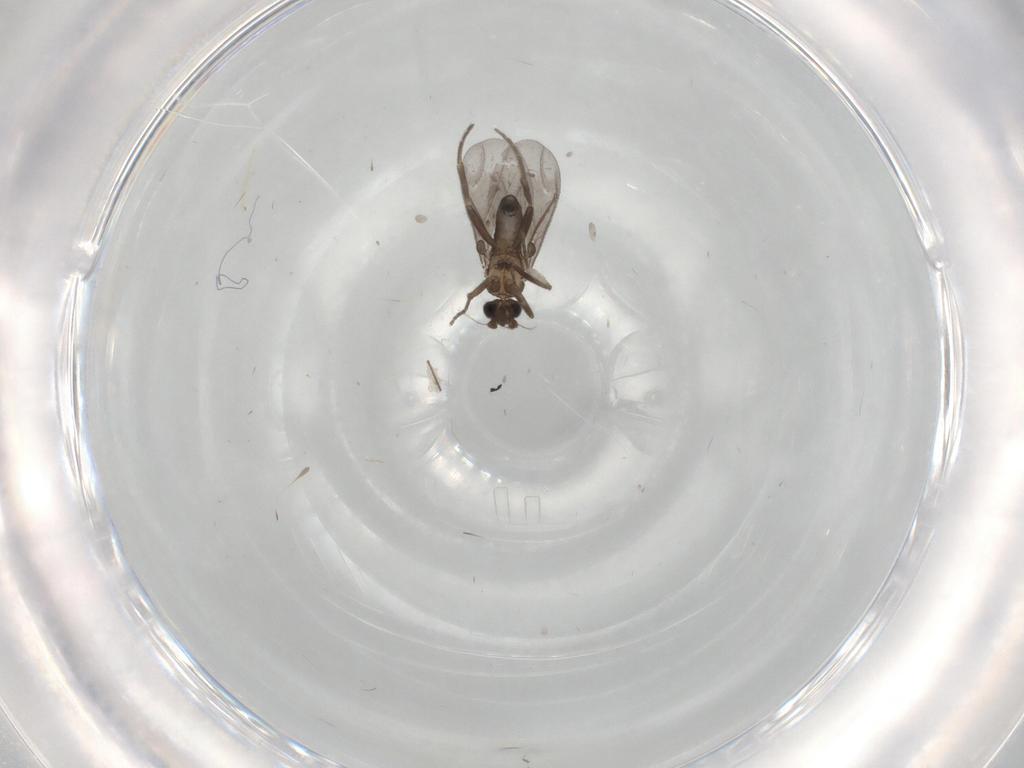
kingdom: Animalia
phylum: Arthropoda
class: Insecta
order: Diptera
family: Phoridae
